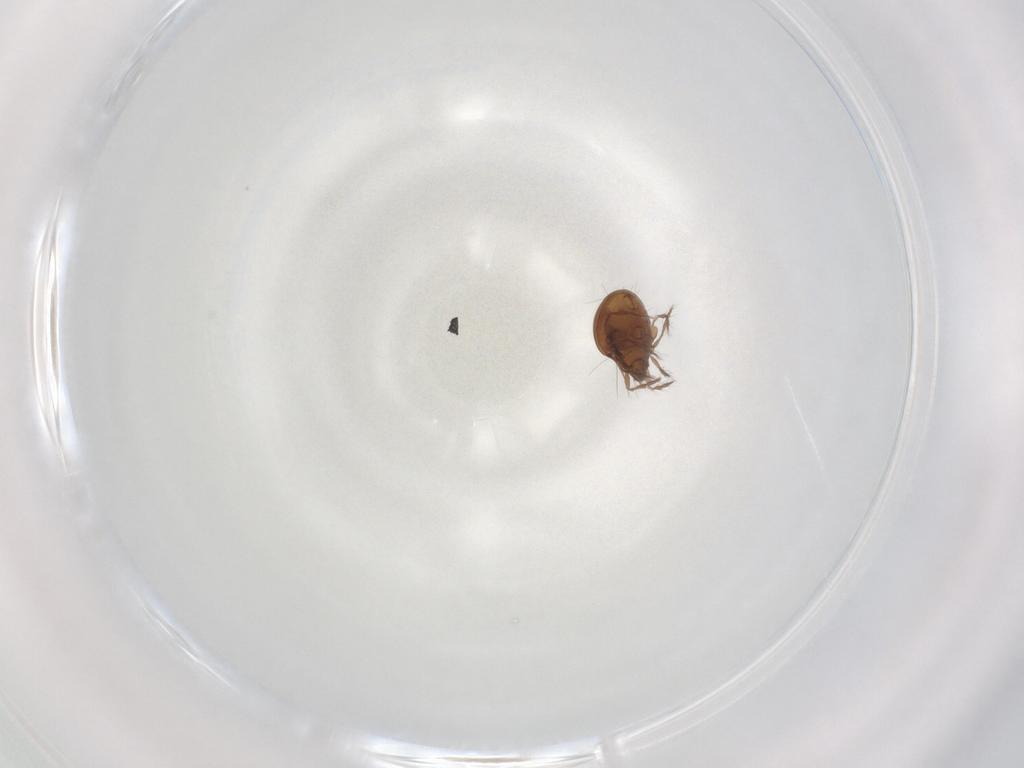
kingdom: Animalia
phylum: Arthropoda
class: Arachnida
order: Sarcoptiformes
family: Ceratoppiidae
